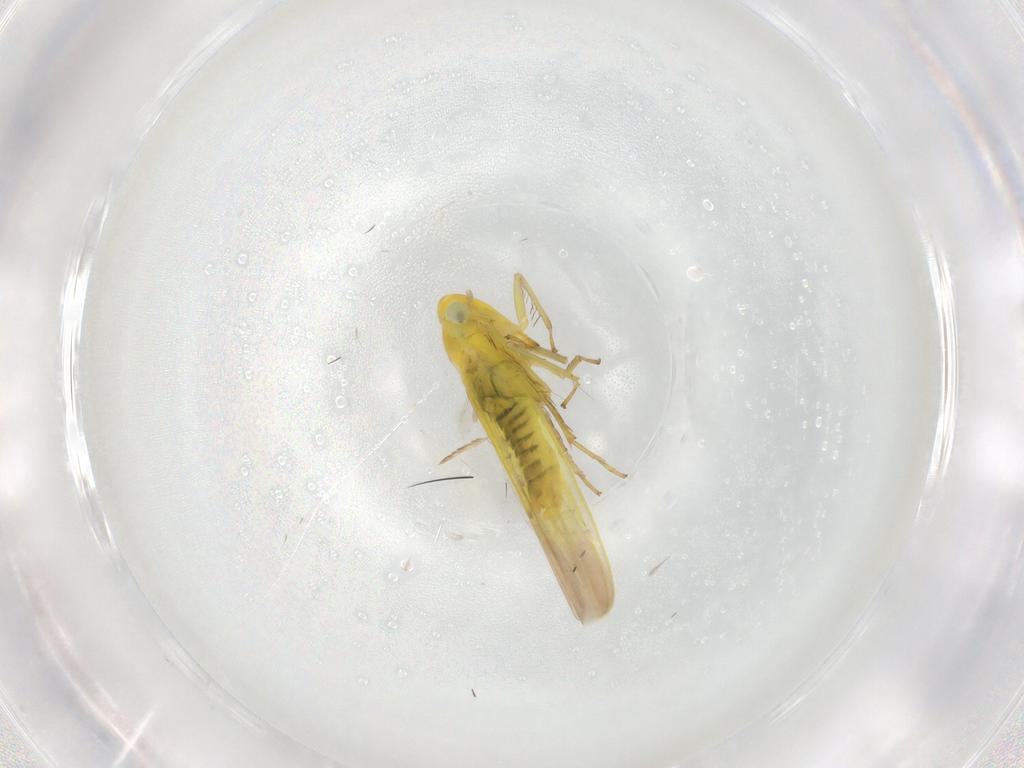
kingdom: Animalia
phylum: Arthropoda
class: Insecta
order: Hemiptera
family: Cicadellidae
